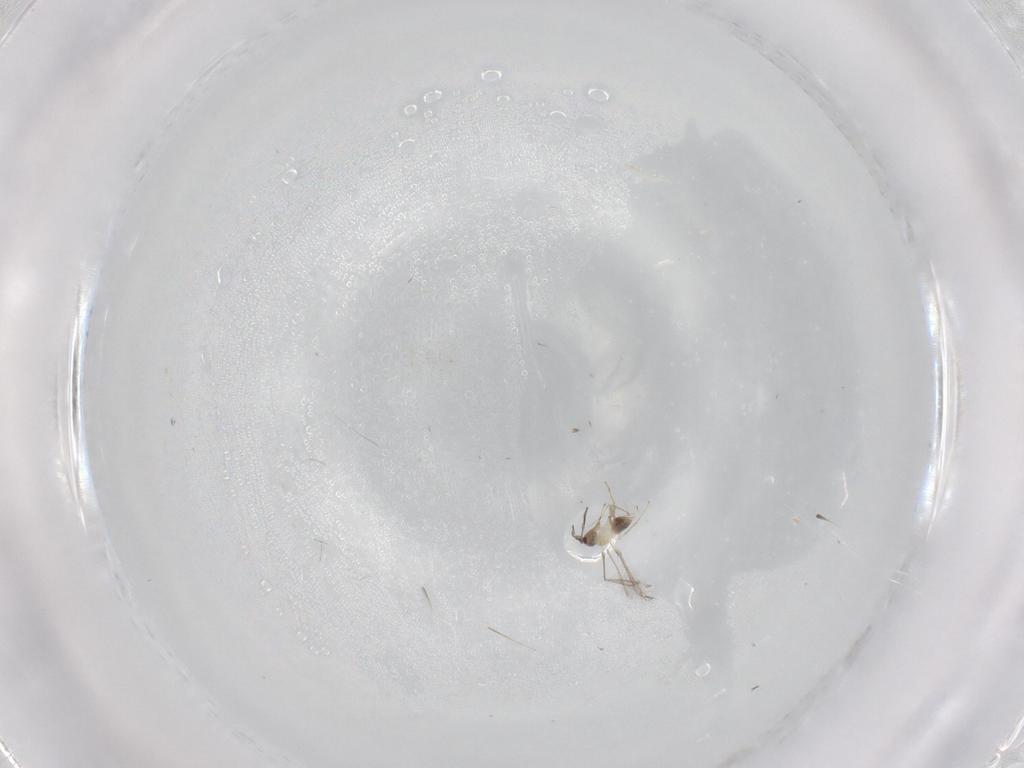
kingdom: Animalia
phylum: Arthropoda
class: Insecta
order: Hymenoptera
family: Mymaridae
